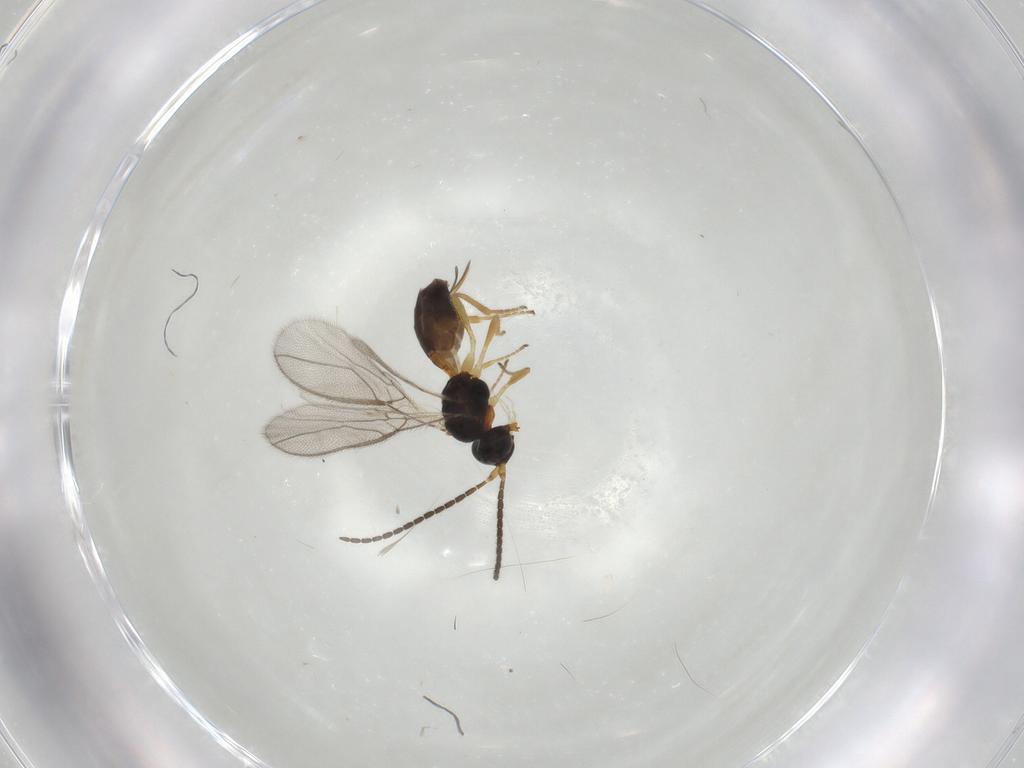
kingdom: Animalia
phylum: Arthropoda
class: Insecta
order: Hymenoptera
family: Braconidae
